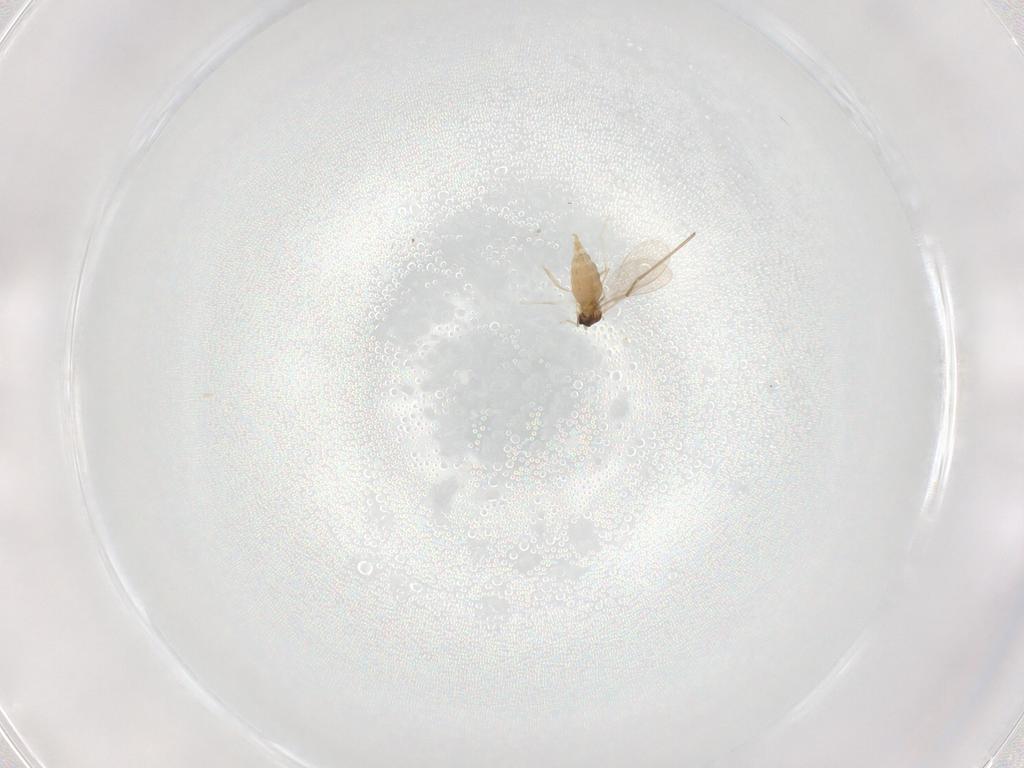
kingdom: Animalia
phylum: Arthropoda
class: Insecta
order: Diptera
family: Cecidomyiidae
